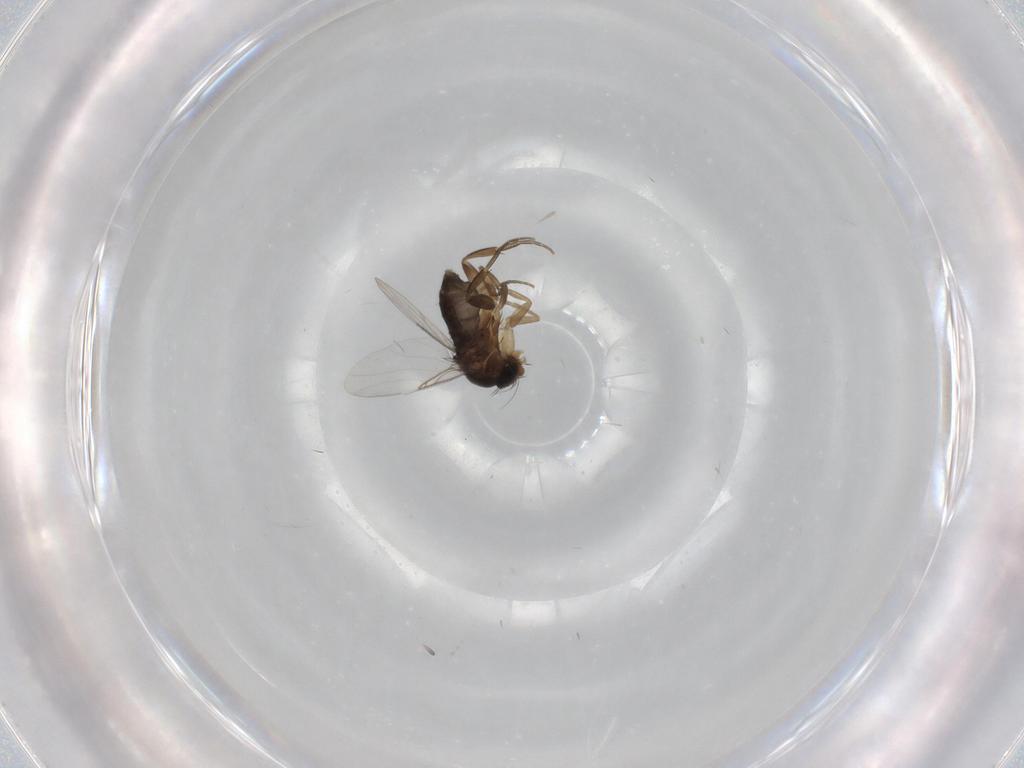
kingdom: Animalia
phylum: Arthropoda
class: Insecta
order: Diptera
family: Phoridae
